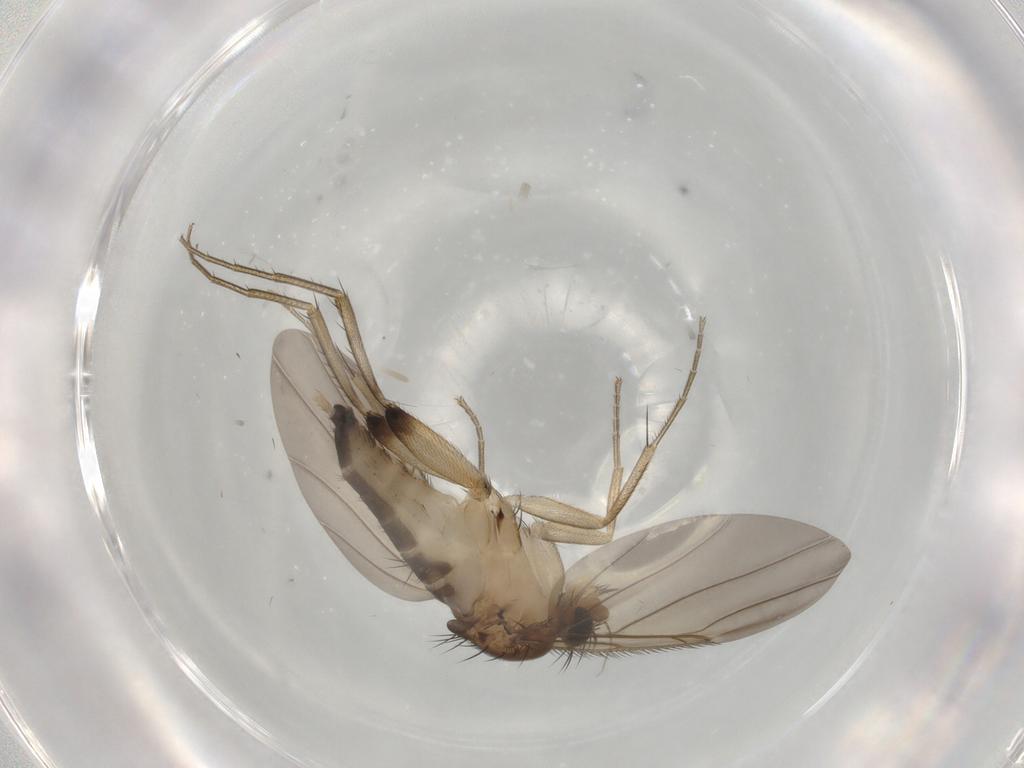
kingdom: Animalia
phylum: Arthropoda
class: Insecta
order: Diptera
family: Phoridae
